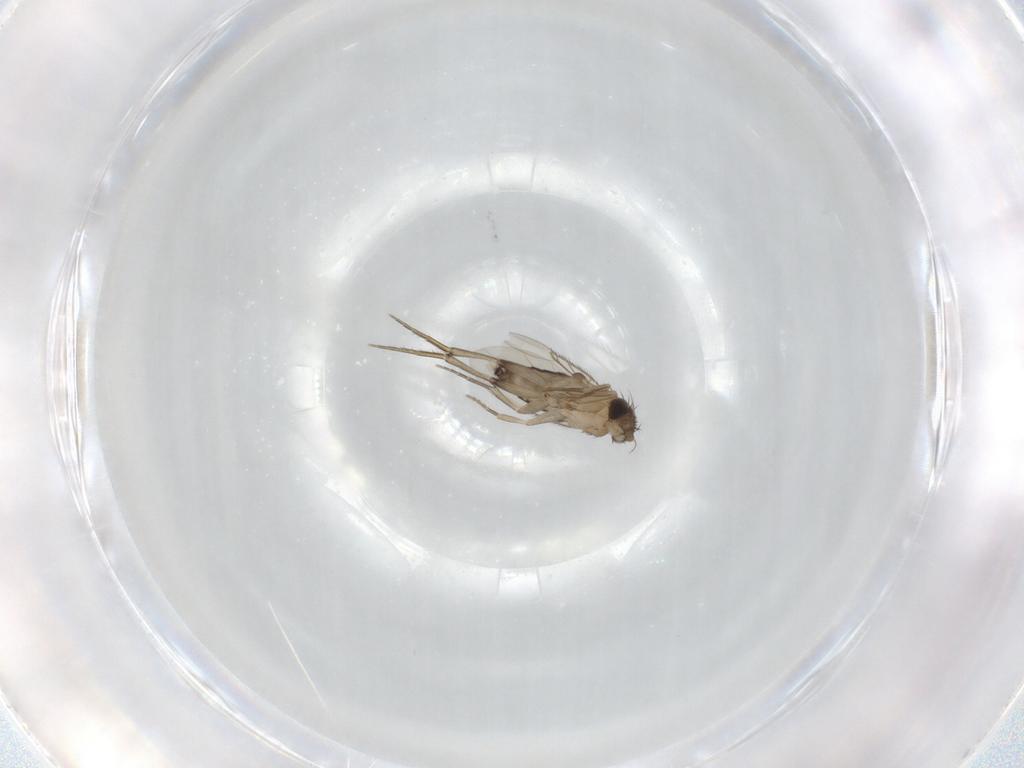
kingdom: Animalia
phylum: Arthropoda
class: Insecta
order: Diptera
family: Phoridae
